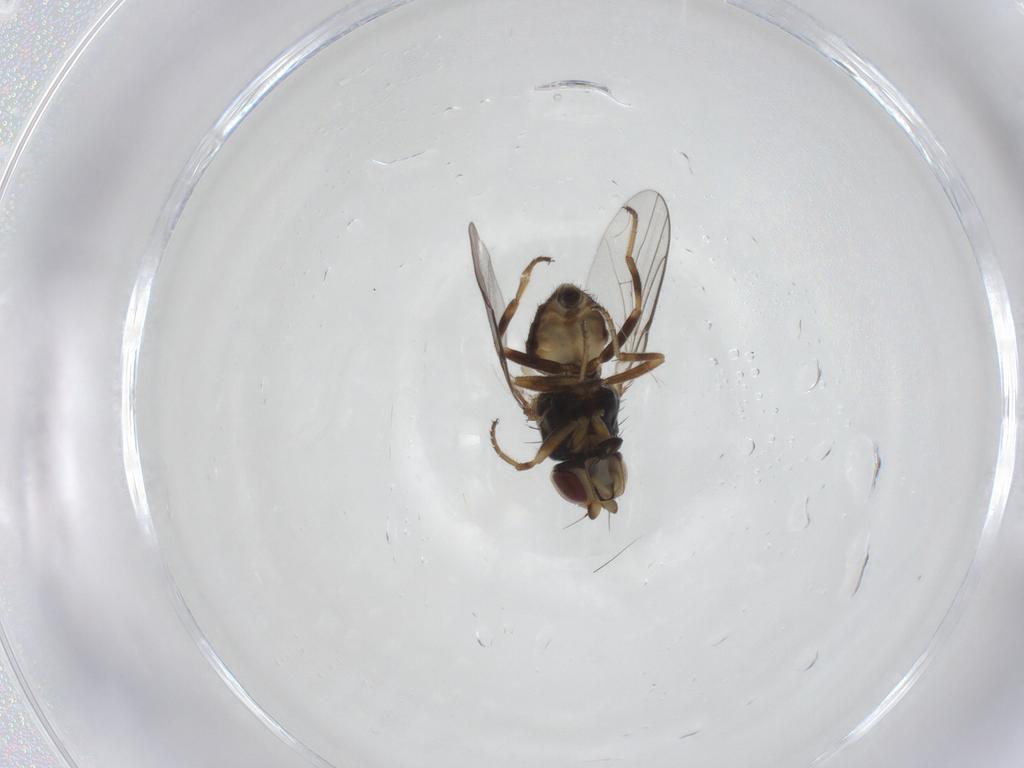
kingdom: Animalia
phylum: Arthropoda
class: Insecta
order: Diptera
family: Chloropidae
